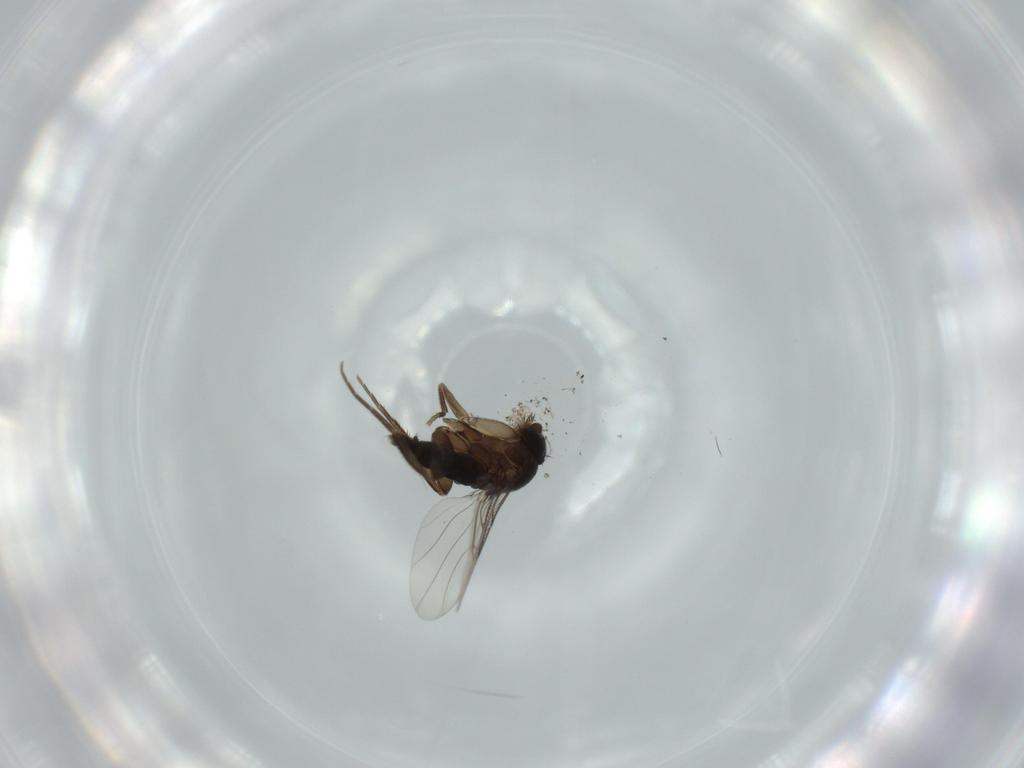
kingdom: Animalia
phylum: Arthropoda
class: Insecta
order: Diptera
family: Phoridae
